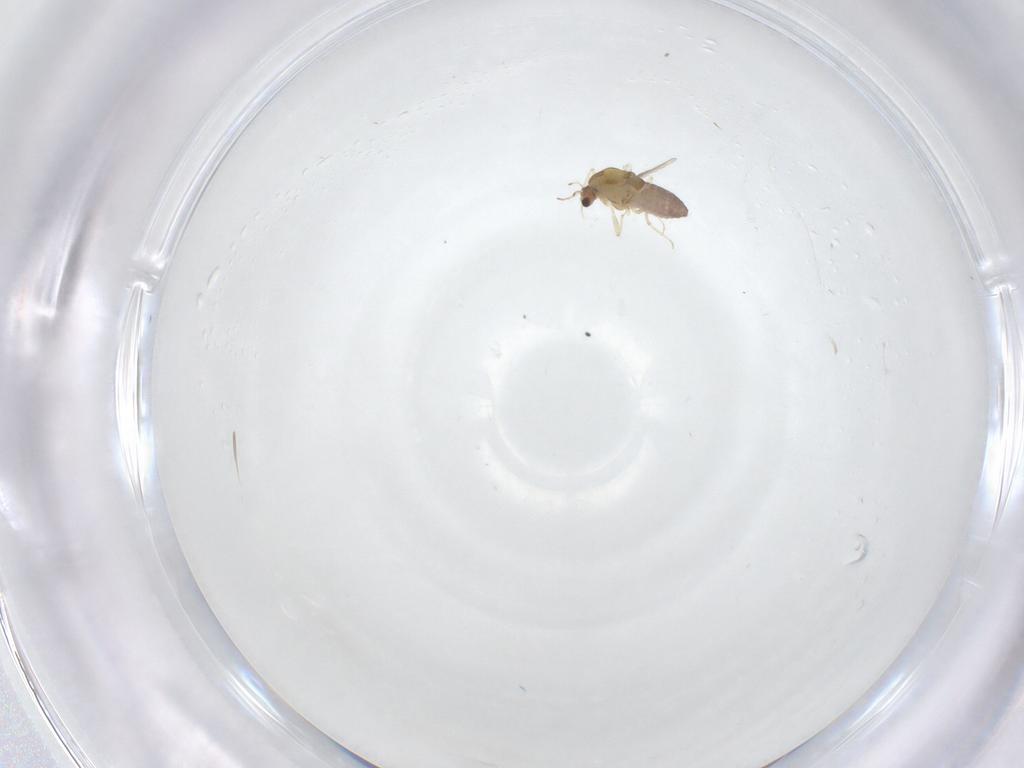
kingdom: Animalia
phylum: Arthropoda
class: Insecta
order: Diptera
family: Chironomidae
